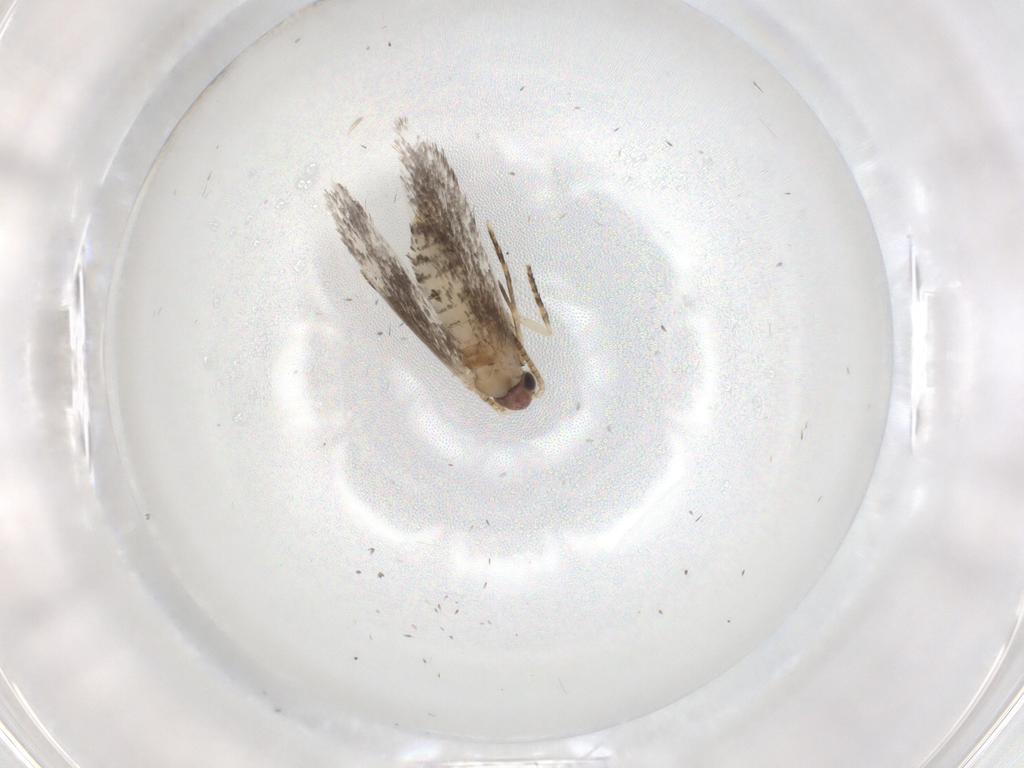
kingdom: Animalia
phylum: Arthropoda
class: Insecta
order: Lepidoptera
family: Tineidae
